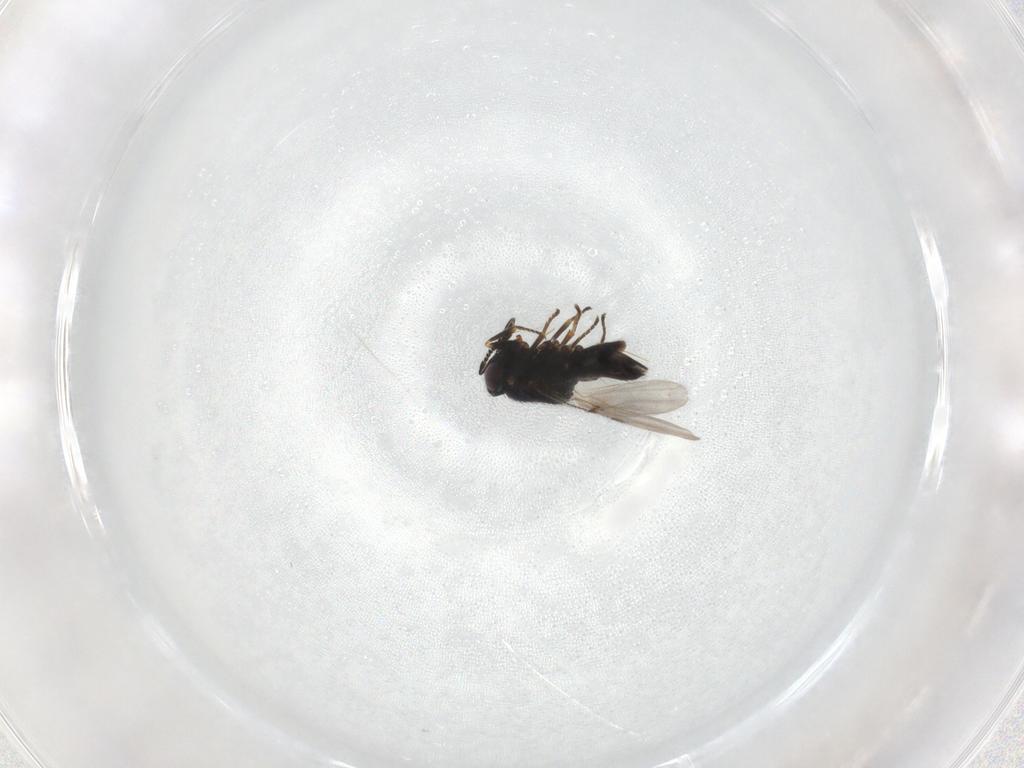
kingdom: Animalia
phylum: Arthropoda
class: Insecta
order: Hymenoptera
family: Encyrtidae
